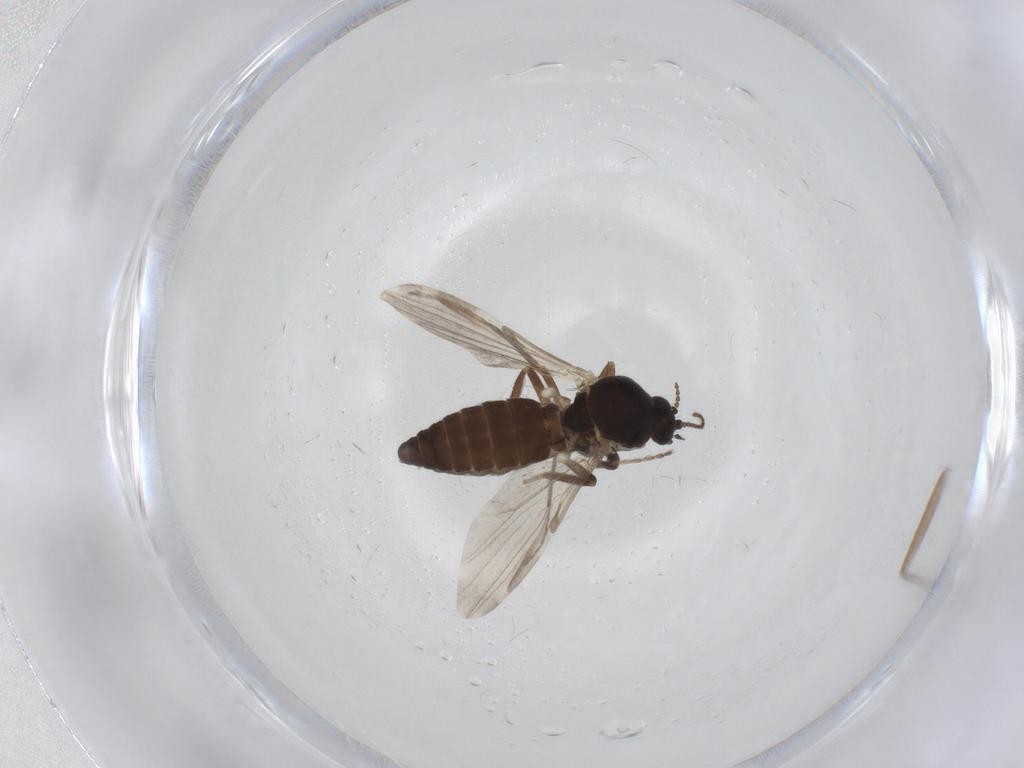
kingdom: Animalia
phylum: Arthropoda
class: Insecta
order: Diptera
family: Ceratopogonidae
